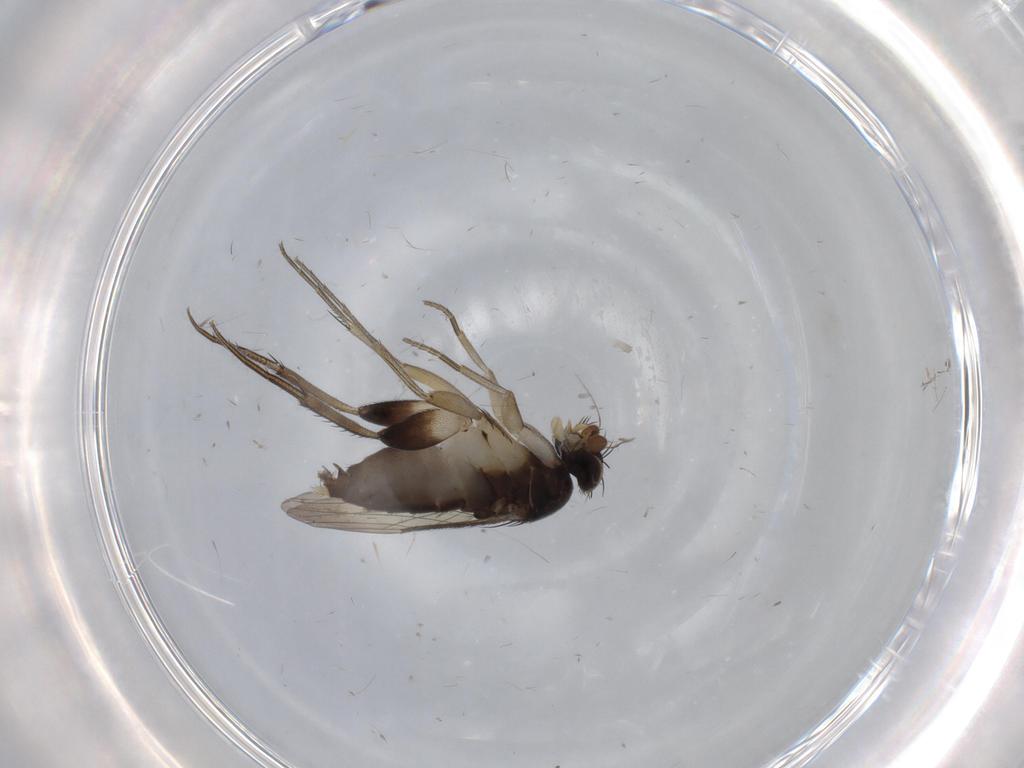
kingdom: Animalia
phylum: Arthropoda
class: Insecta
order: Diptera
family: Phoridae
